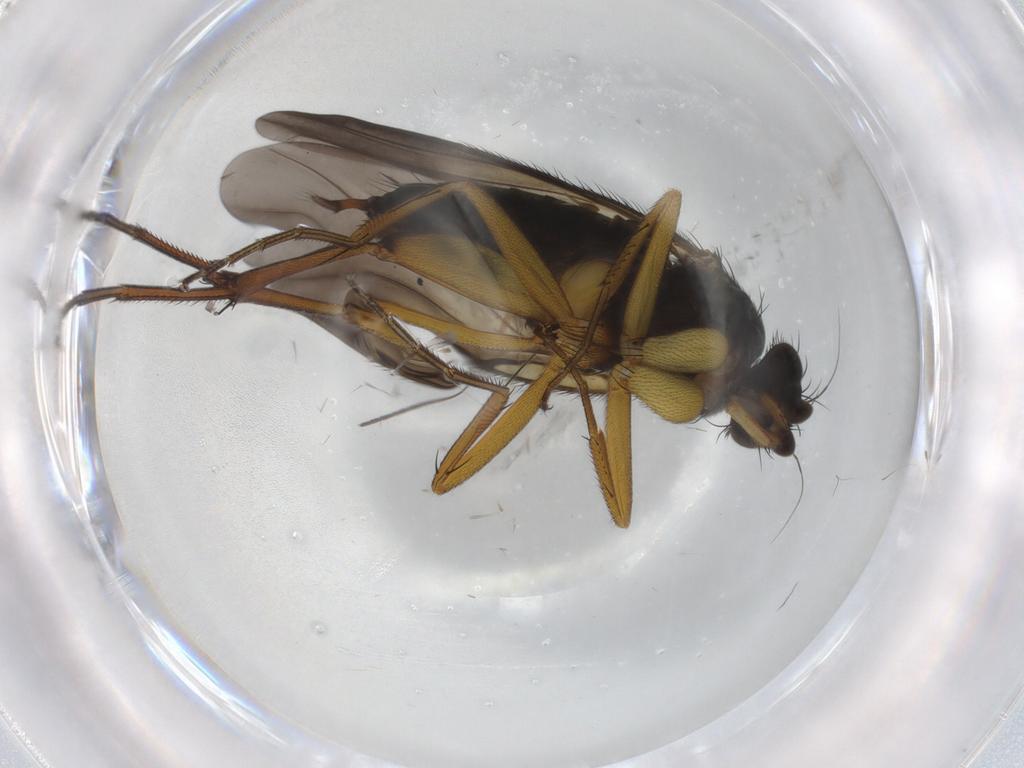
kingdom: Animalia
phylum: Arthropoda
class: Insecta
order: Diptera
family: Phoridae
